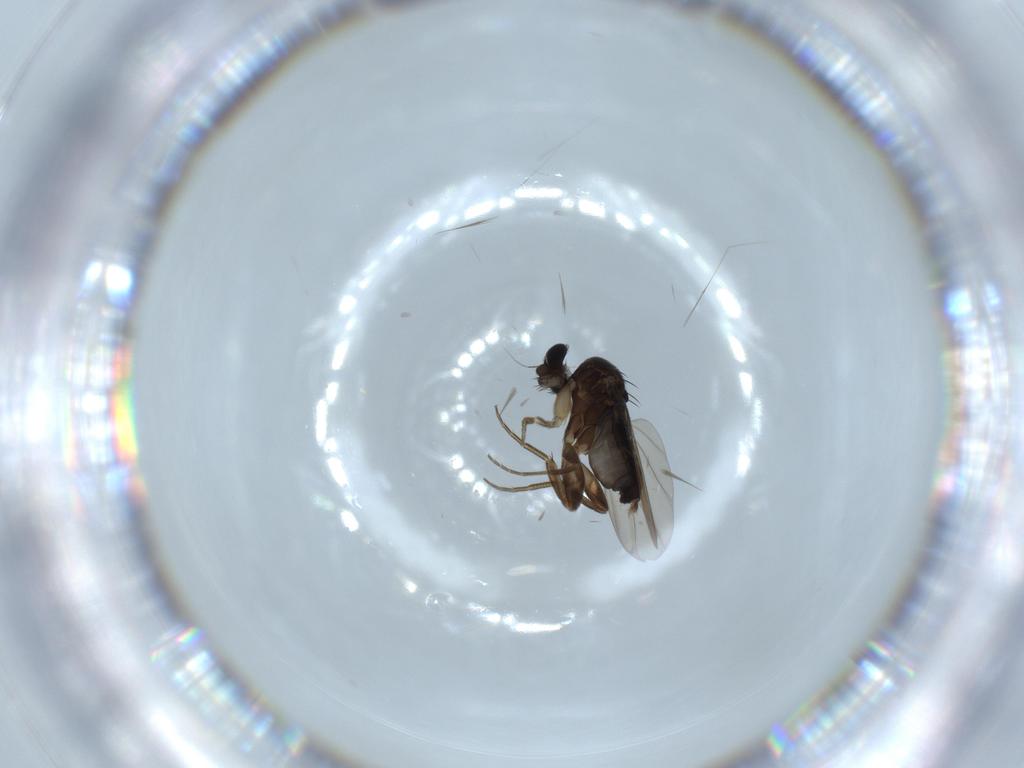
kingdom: Animalia
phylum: Arthropoda
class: Insecta
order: Diptera
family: Phoridae
